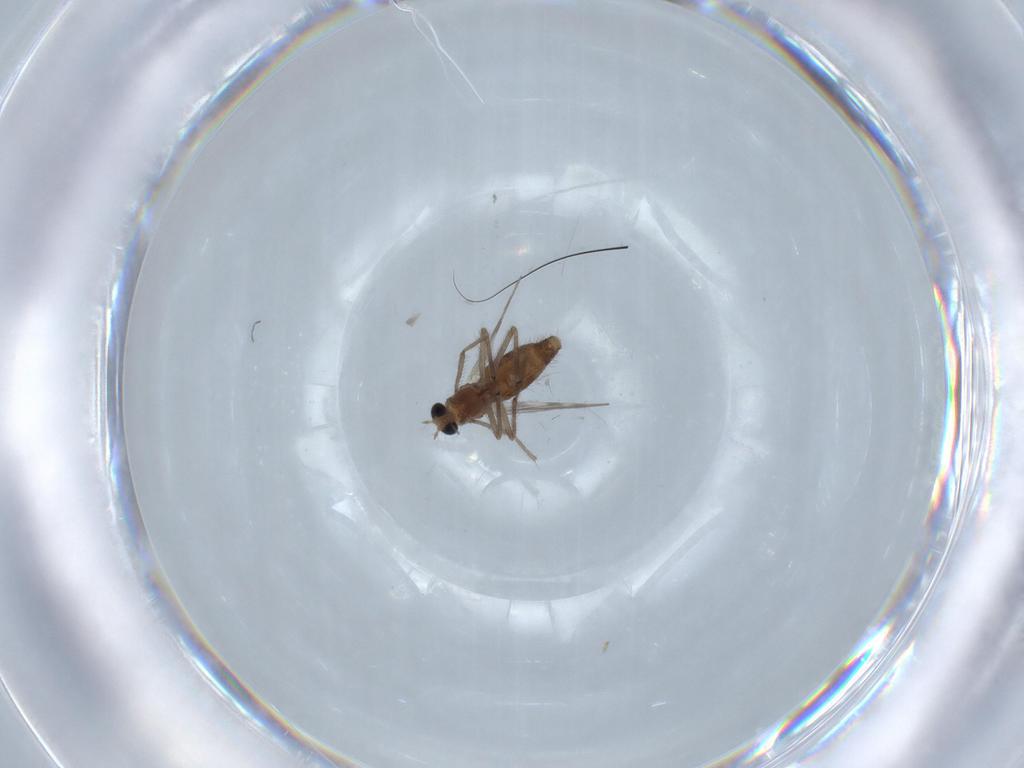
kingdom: Animalia
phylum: Arthropoda
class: Insecta
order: Diptera
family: Chironomidae
